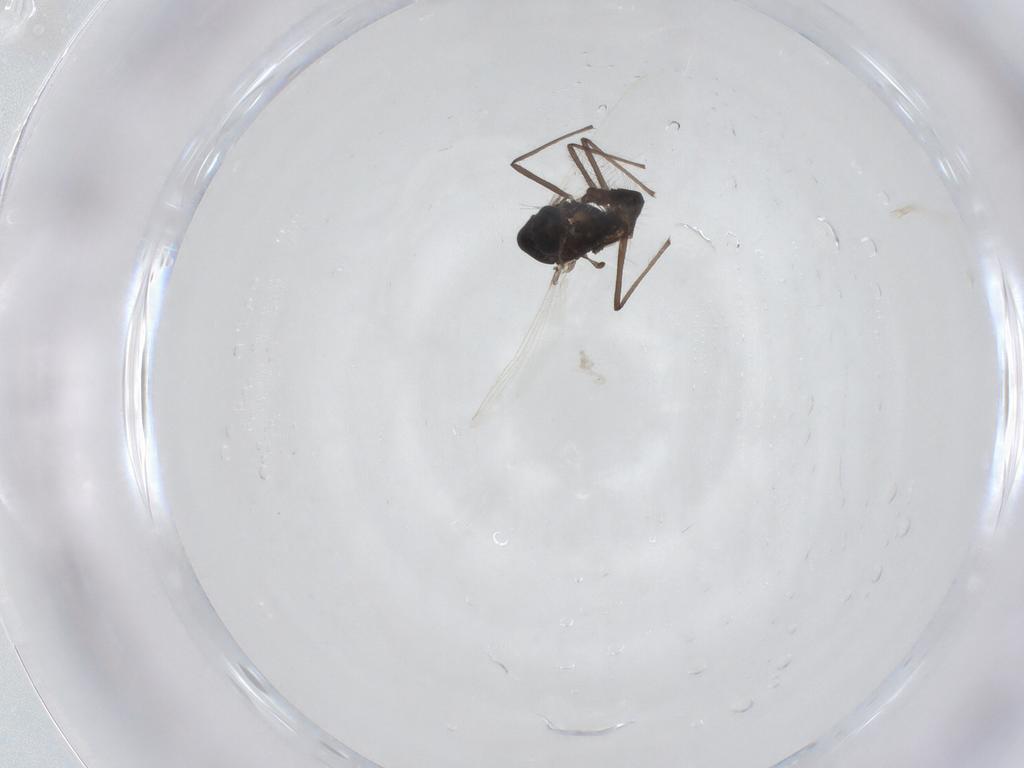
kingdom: Animalia
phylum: Arthropoda
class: Insecta
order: Diptera
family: Chironomidae
